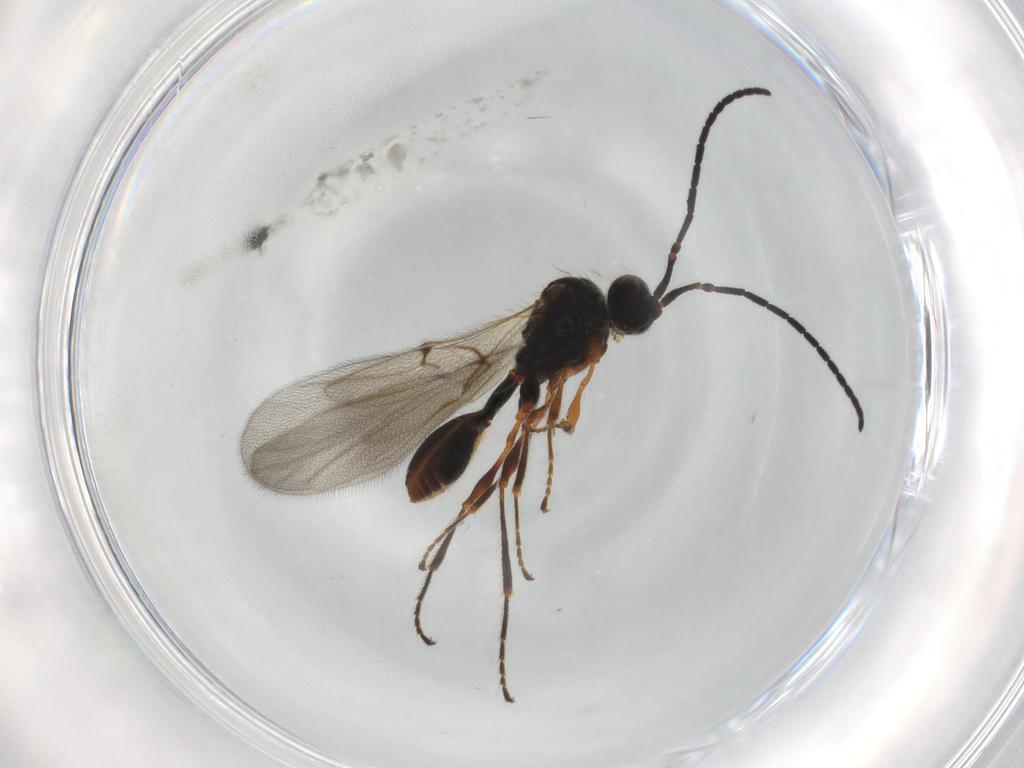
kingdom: Animalia
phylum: Arthropoda
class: Insecta
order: Hymenoptera
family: Diapriidae
